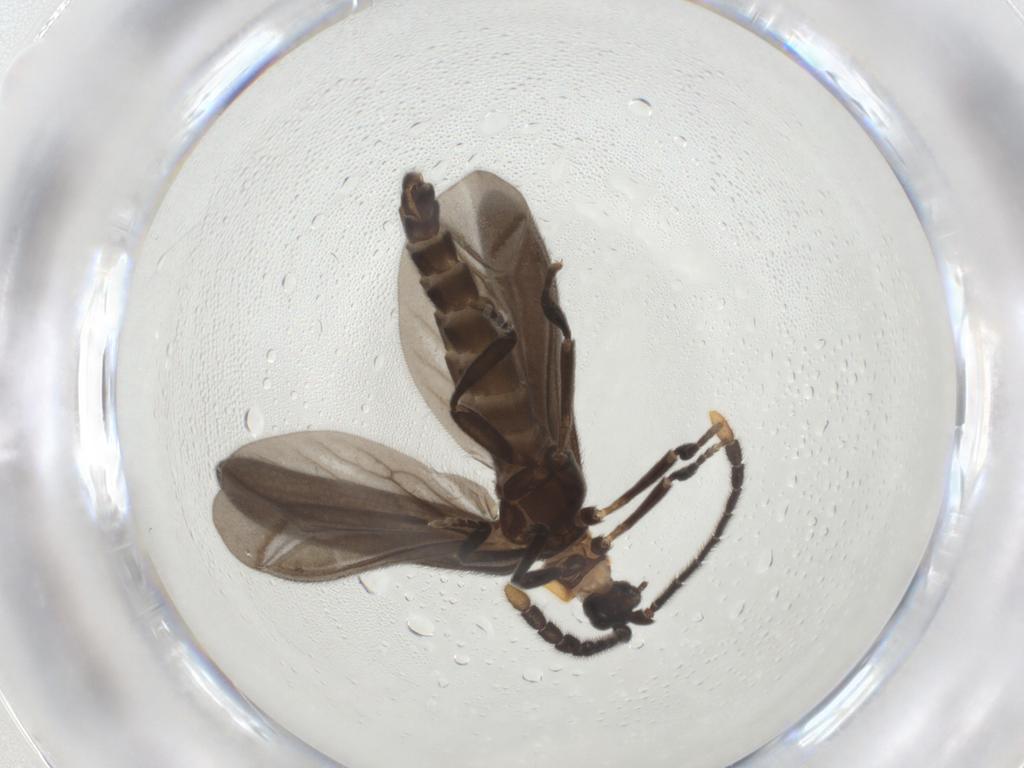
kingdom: Animalia
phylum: Arthropoda
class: Insecta
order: Coleoptera
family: Lycidae
